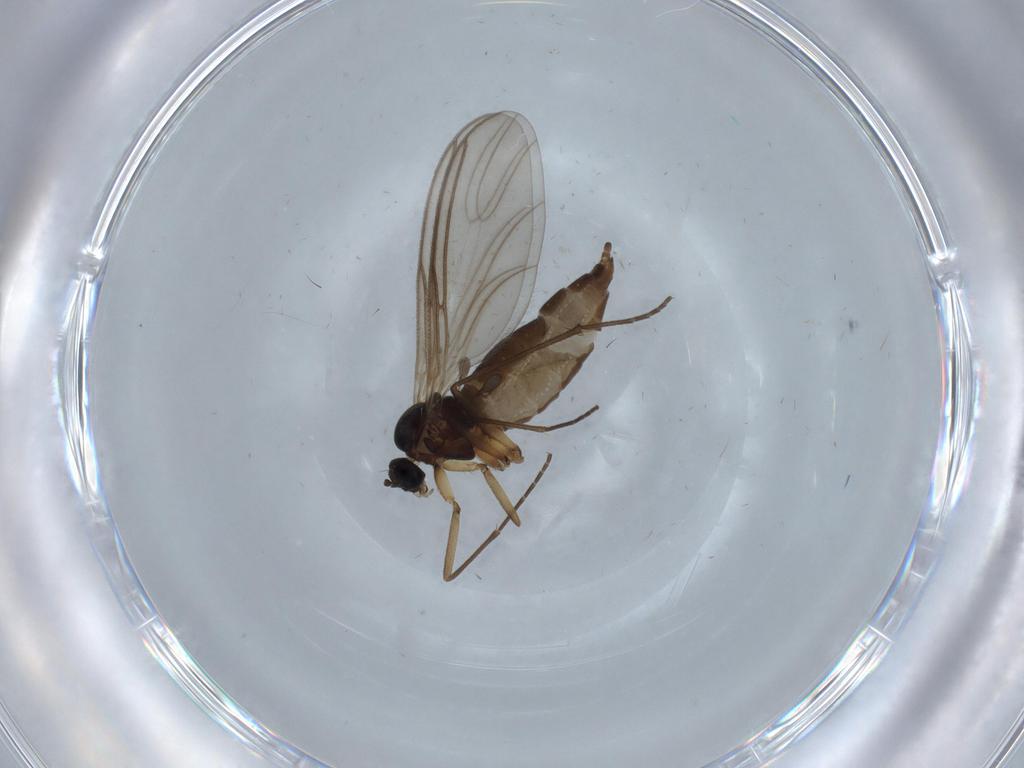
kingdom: Animalia
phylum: Arthropoda
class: Insecta
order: Diptera
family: Sciaridae
